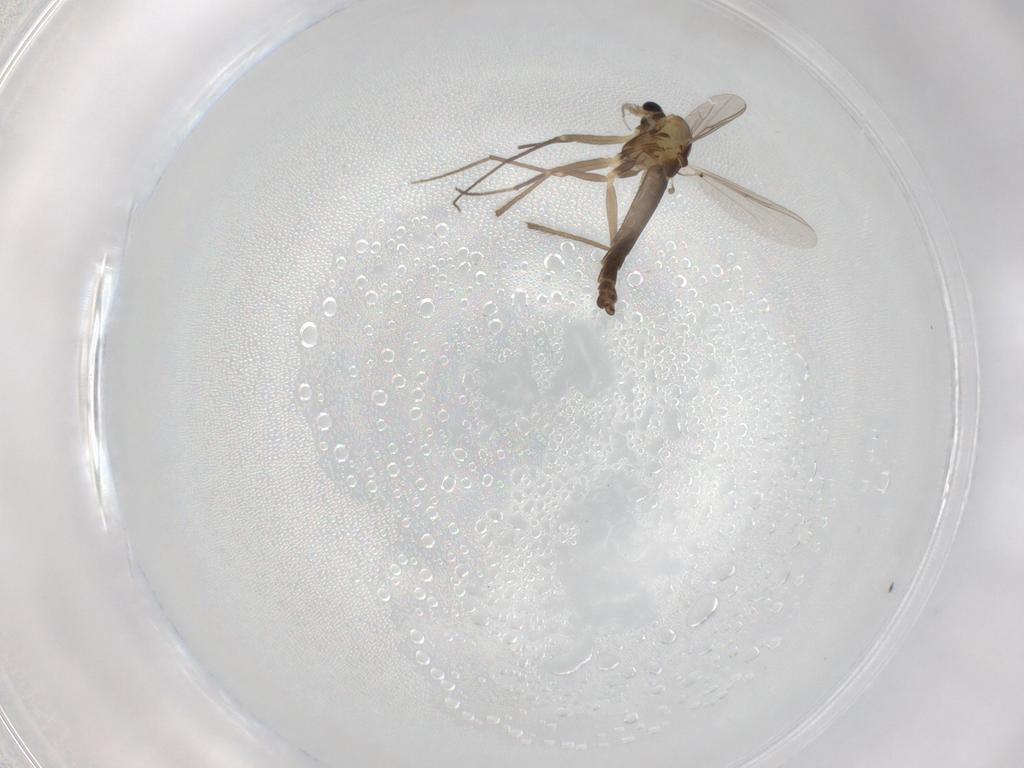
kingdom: Animalia
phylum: Arthropoda
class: Insecta
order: Diptera
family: Chironomidae
